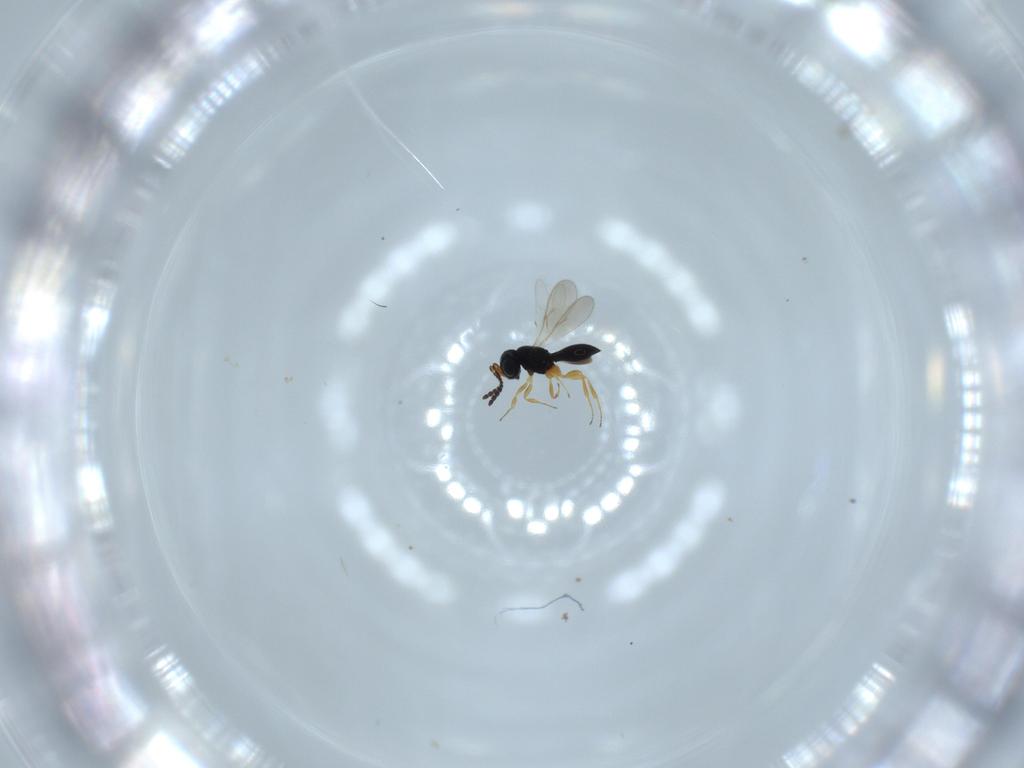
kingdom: Animalia
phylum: Arthropoda
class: Insecta
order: Hymenoptera
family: Scelionidae
